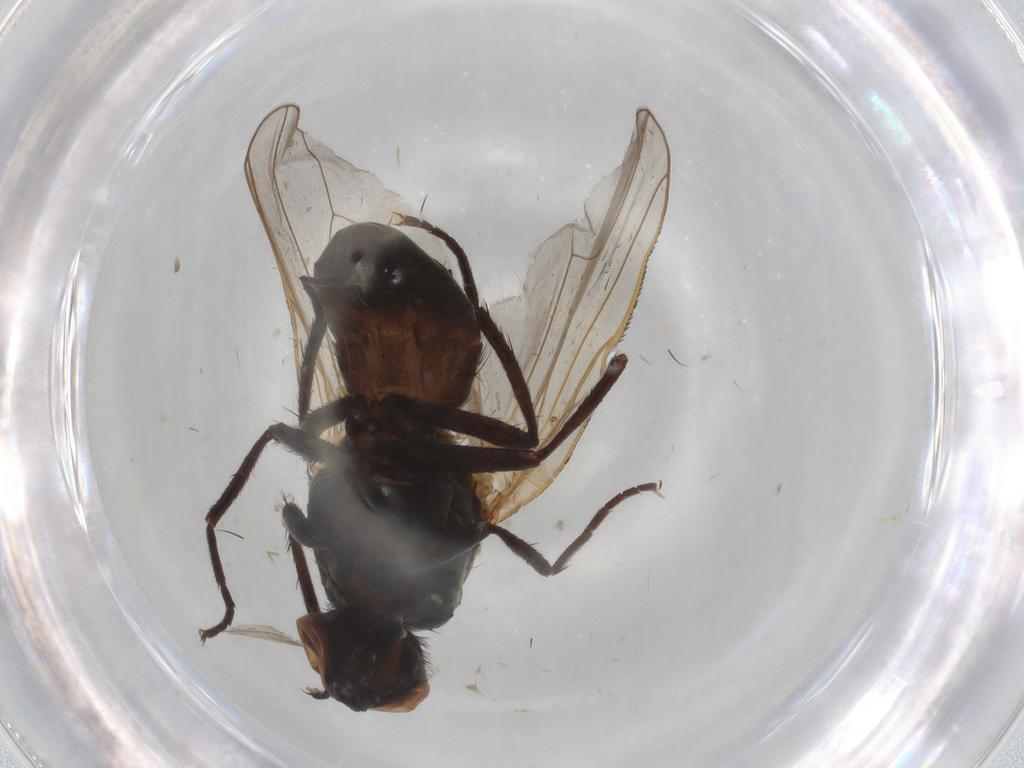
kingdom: Animalia
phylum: Arthropoda
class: Insecta
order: Diptera
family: Anthomyiidae
